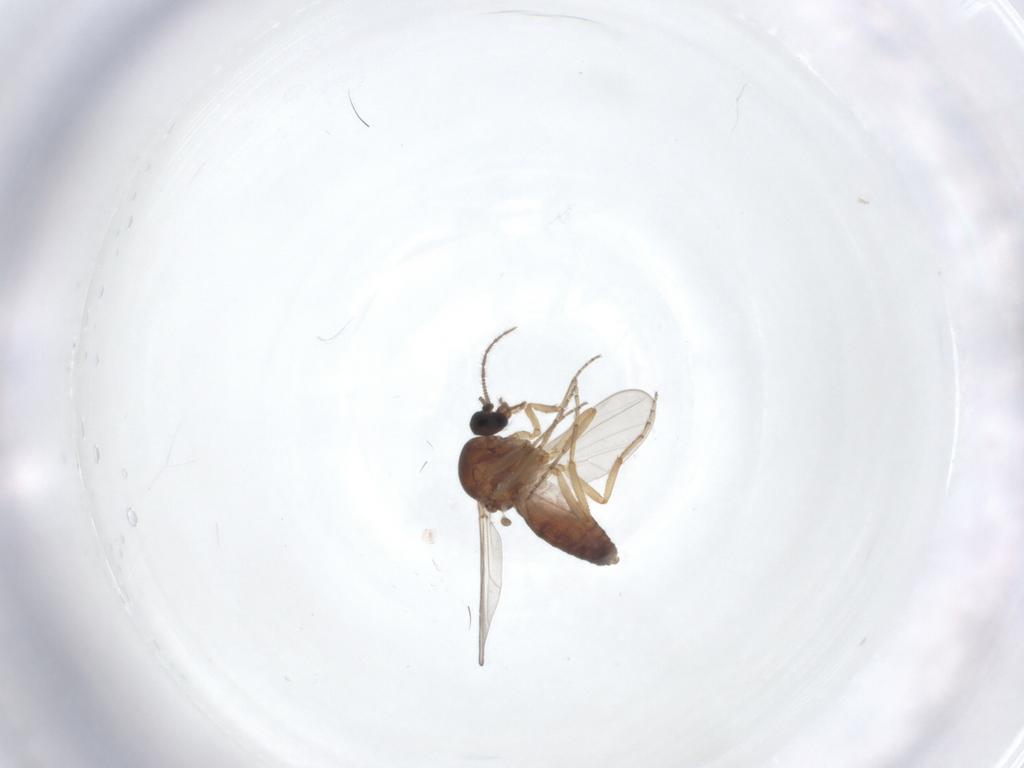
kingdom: Animalia
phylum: Arthropoda
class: Insecta
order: Diptera
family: Ceratopogonidae
